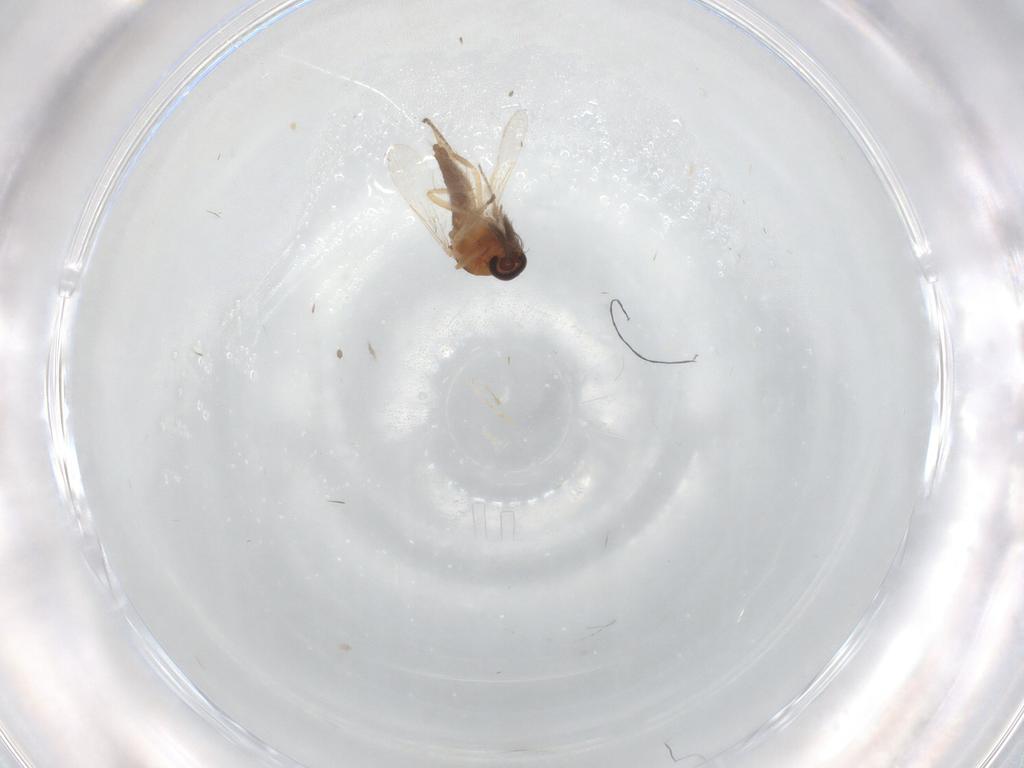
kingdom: Animalia
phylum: Arthropoda
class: Insecta
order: Diptera
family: Ceratopogonidae
